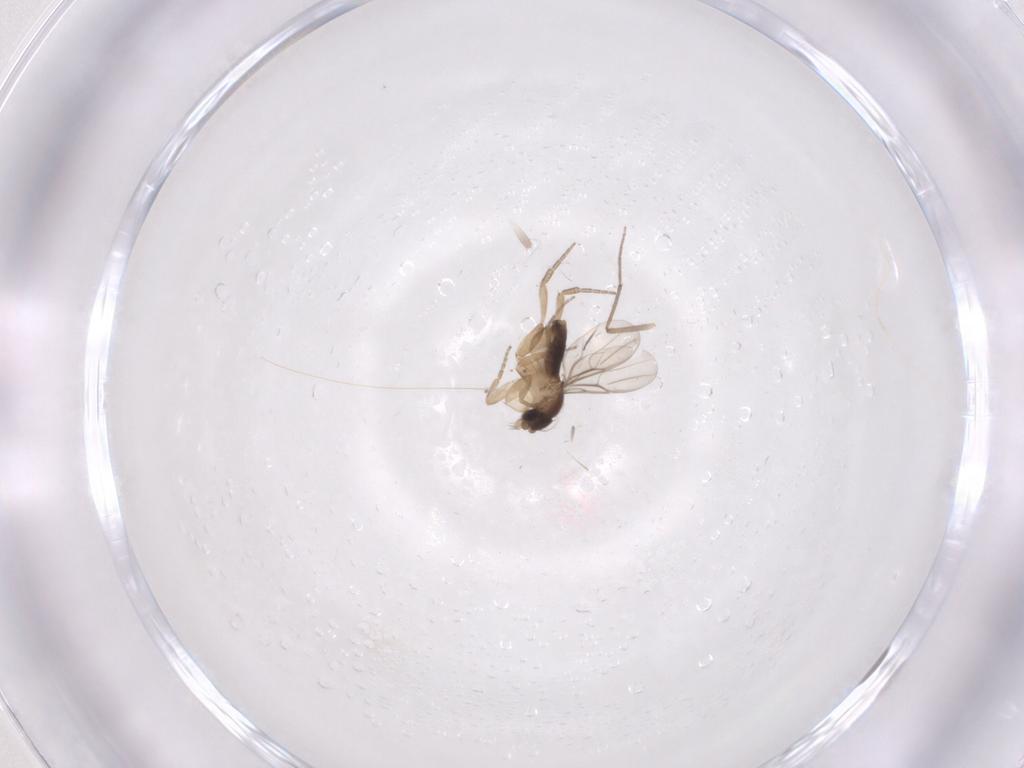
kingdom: Animalia
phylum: Arthropoda
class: Insecta
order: Diptera
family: Phoridae
